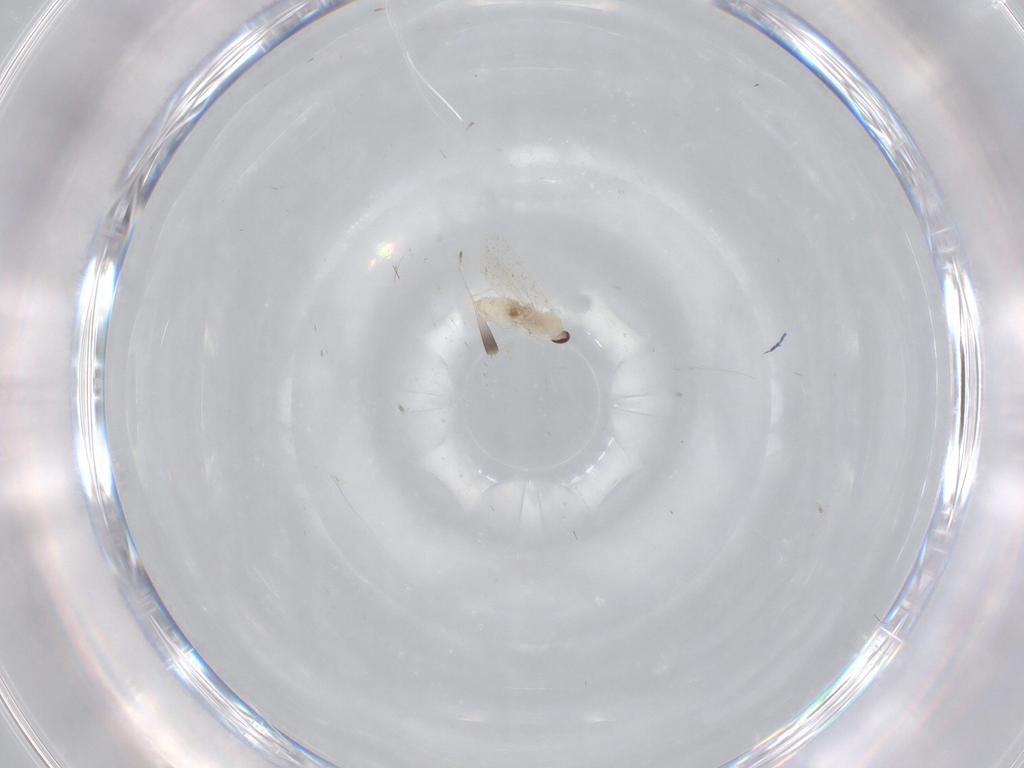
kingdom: Animalia
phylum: Arthropoda
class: Insecta
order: Diptera
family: Cecidomyiidae
